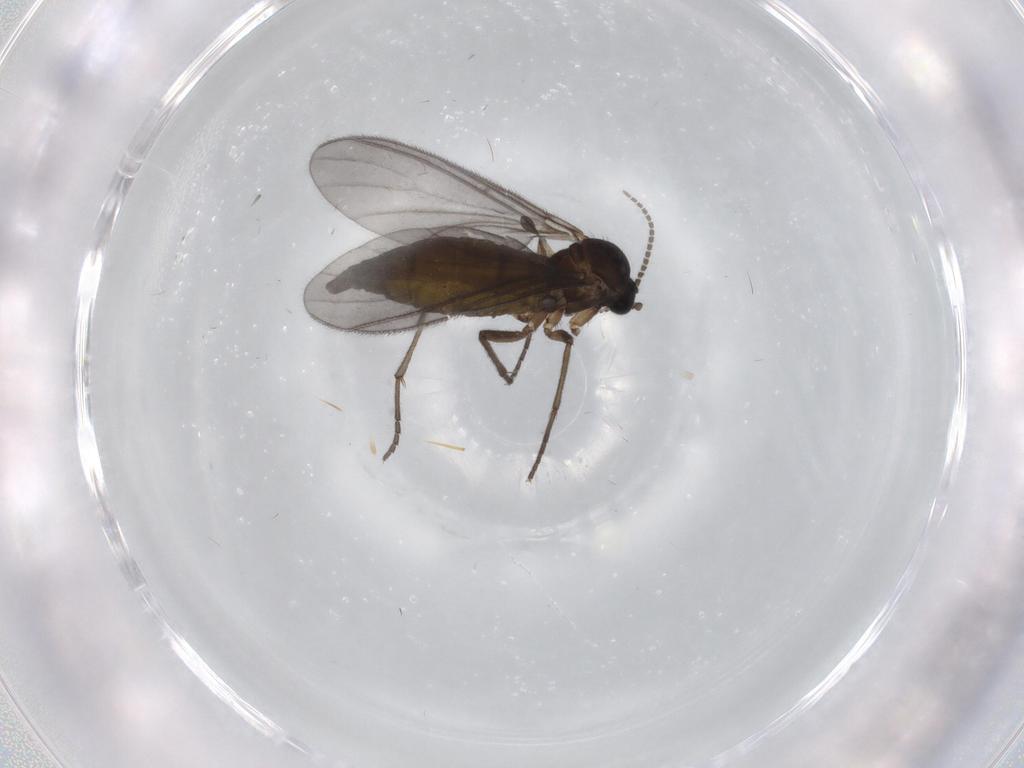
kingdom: Animalia
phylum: Arthropoda
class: Insecta
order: Diptera
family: Sciaridae
